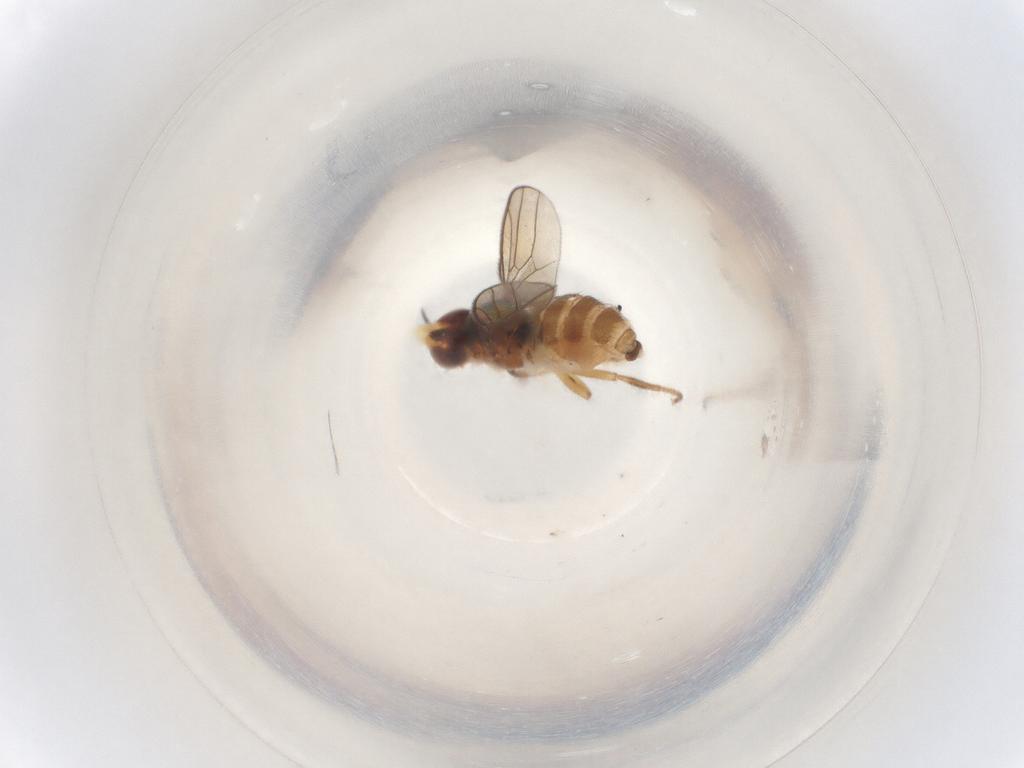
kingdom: Animalia
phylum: Arthropoda
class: Insecta
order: Diptera
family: Chloropidae
